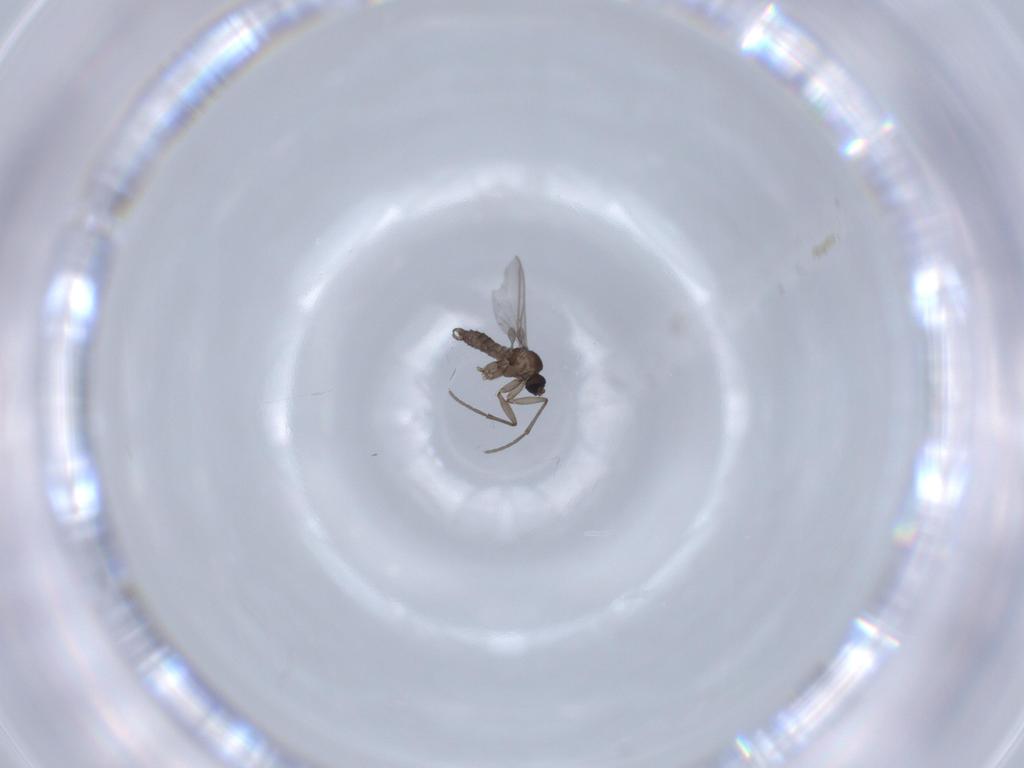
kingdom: Animalia
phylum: Arthropoda
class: Insecta
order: Diptera
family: Sciaridae
